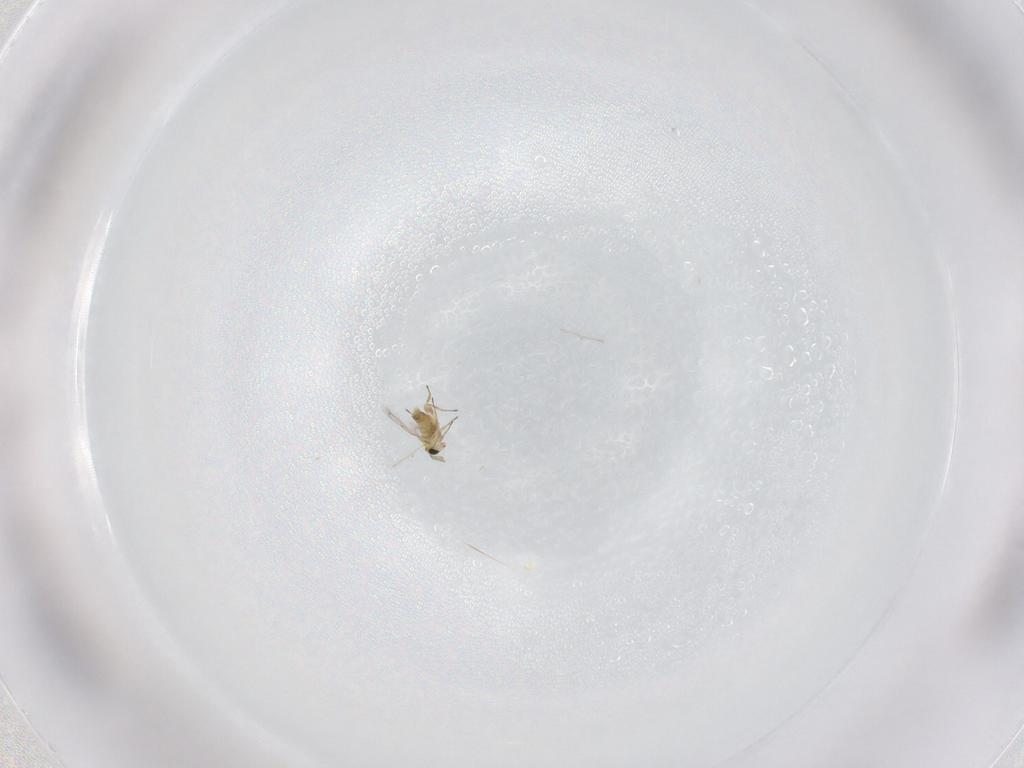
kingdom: Animalia
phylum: Arthropoda
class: Insecta
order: Hymenoptera
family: Trichogrammatidae
